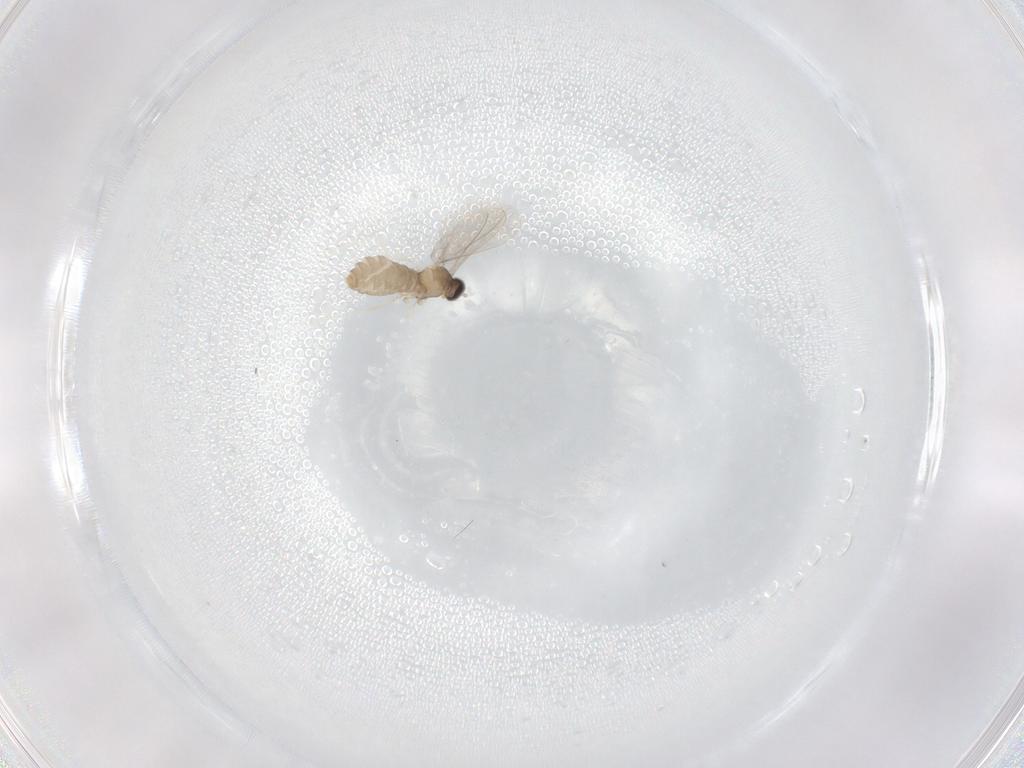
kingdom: Animalia
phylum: Arthropoda
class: Insecta
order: Diptera
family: Cecidomyiidae
